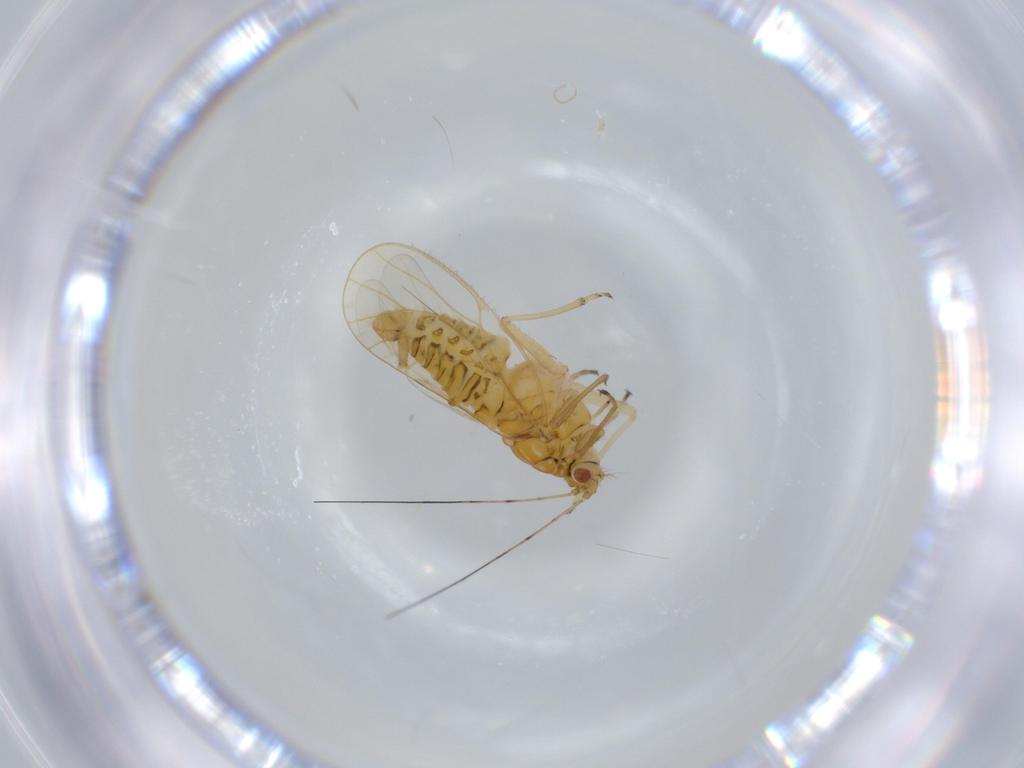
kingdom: Animalia
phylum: Arthropoda
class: Insecta
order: Hemiptera
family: Psyllidae
